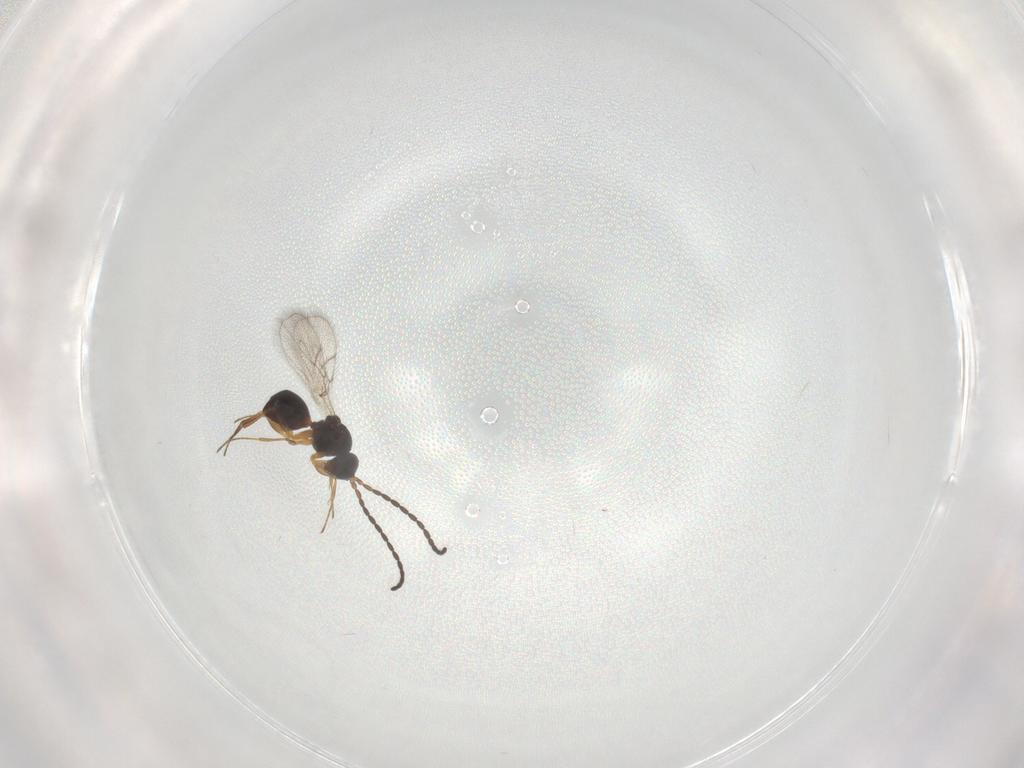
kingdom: Animalia
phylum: Arthropoda
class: Insecta
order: Hymenoptera
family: Figitidae
